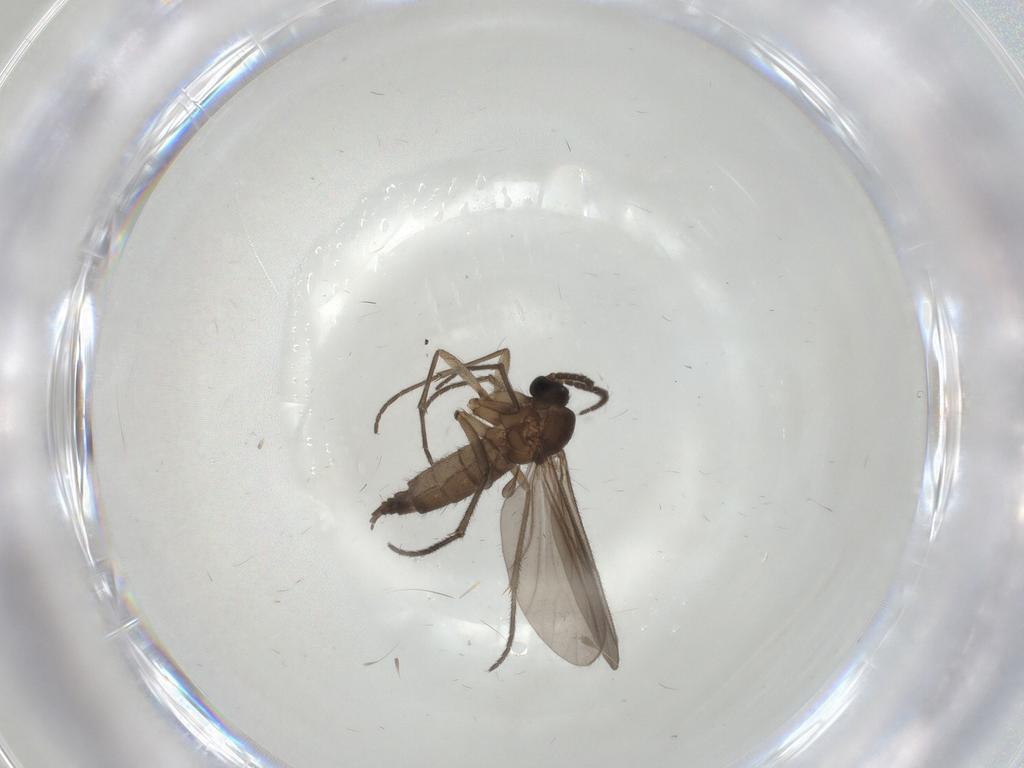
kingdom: Animalia
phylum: Arthropoda
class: Insecta
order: Diptera
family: Sciaridae
